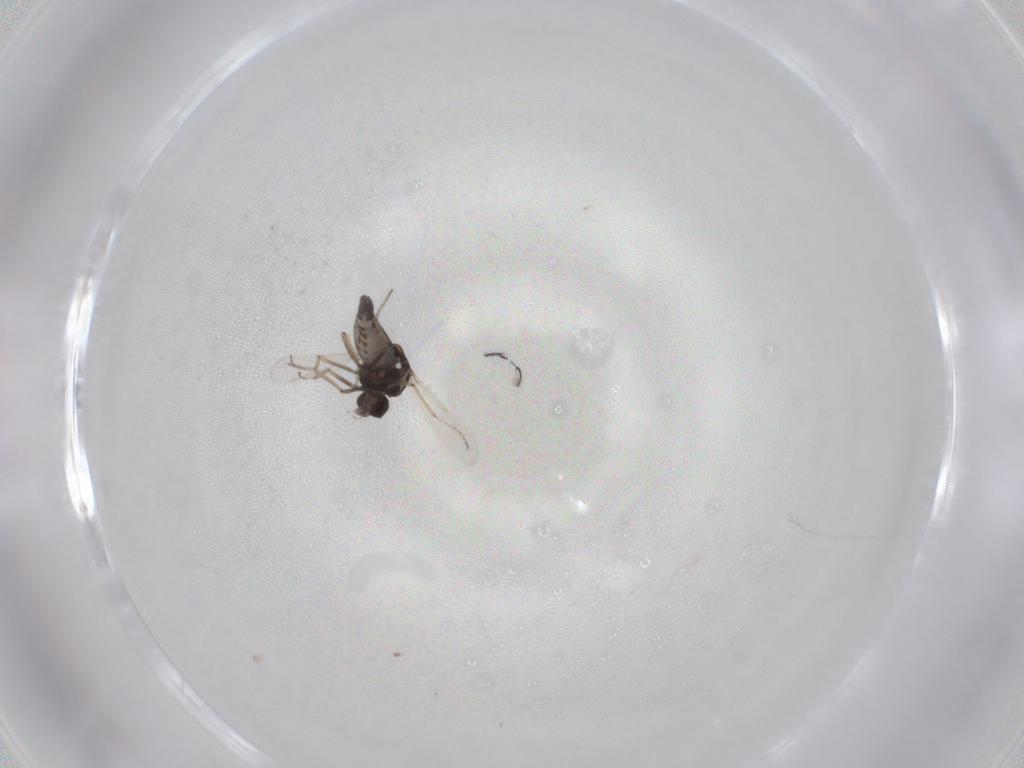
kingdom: Animalia
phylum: Arthropoda
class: Insecta
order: Diptera
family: Ceratopogonidae
